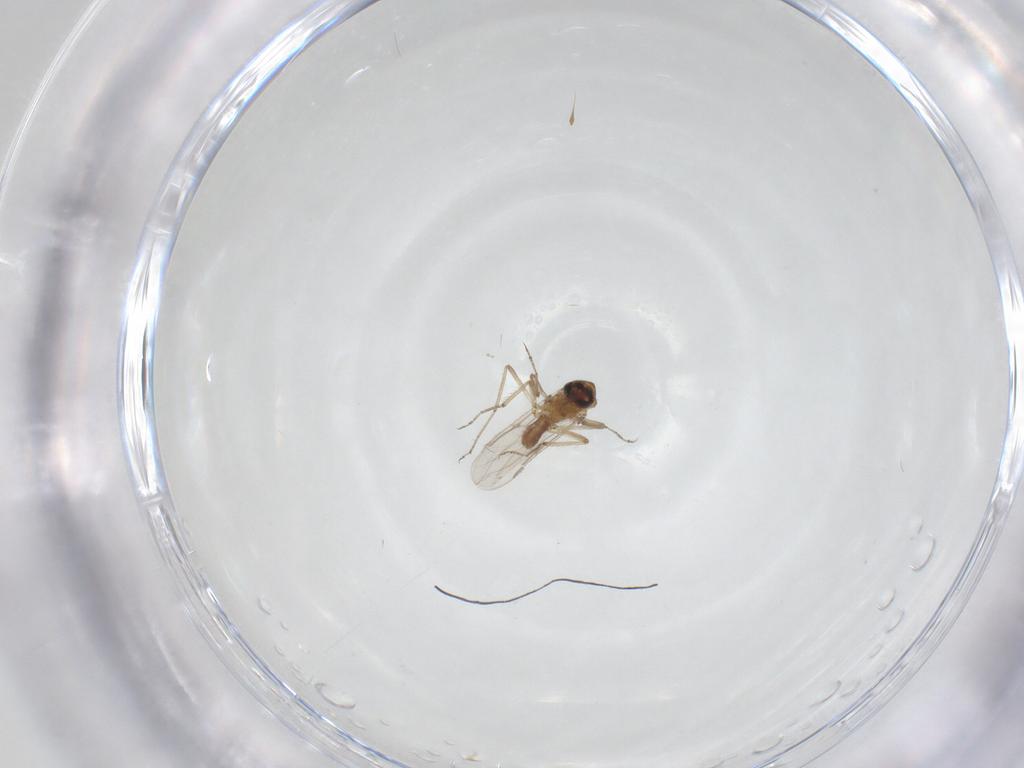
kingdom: Animalia
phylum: Arthropoda
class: Insecta
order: Diptera
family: Ceratopogonidae
